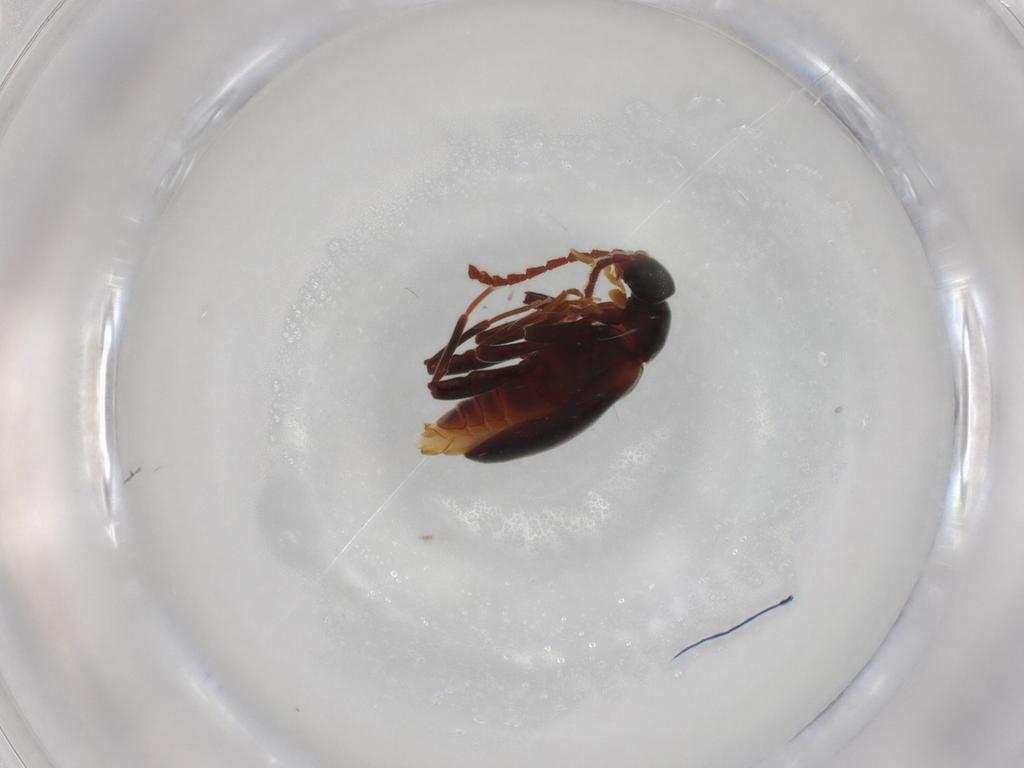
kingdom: Animalia
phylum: Arthropoda
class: Insecta
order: Coleoptera
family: Aderidae
